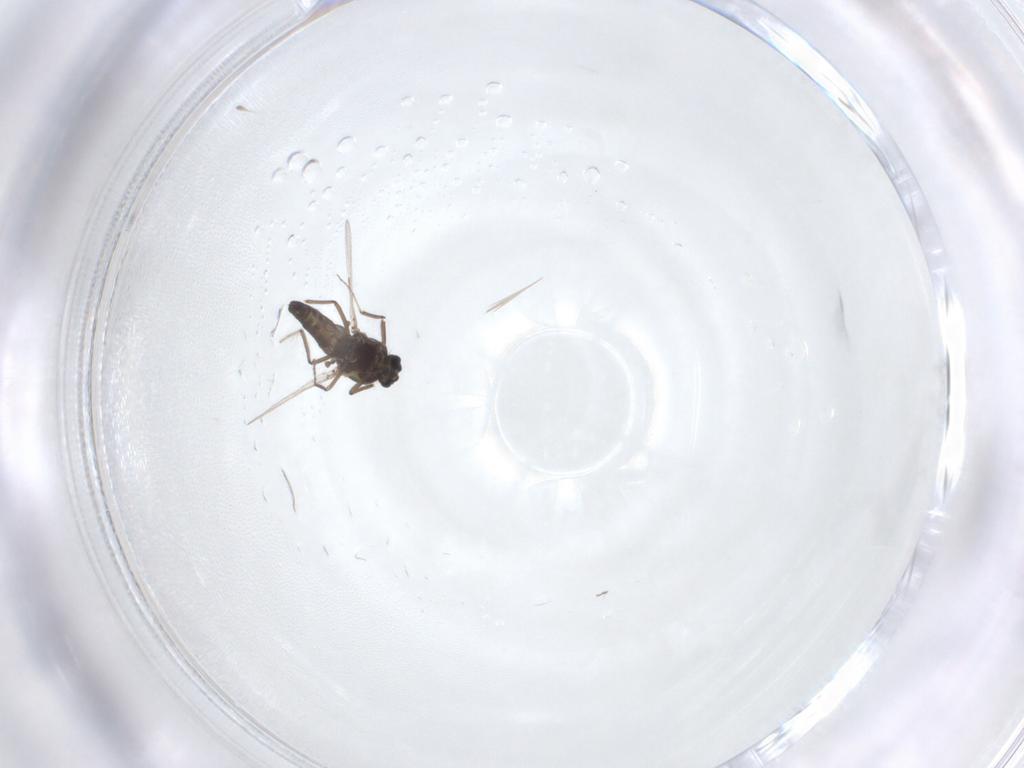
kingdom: Animalia
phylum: Arthropoda
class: Insecta
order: Diptera
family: Ceratopogonidae
